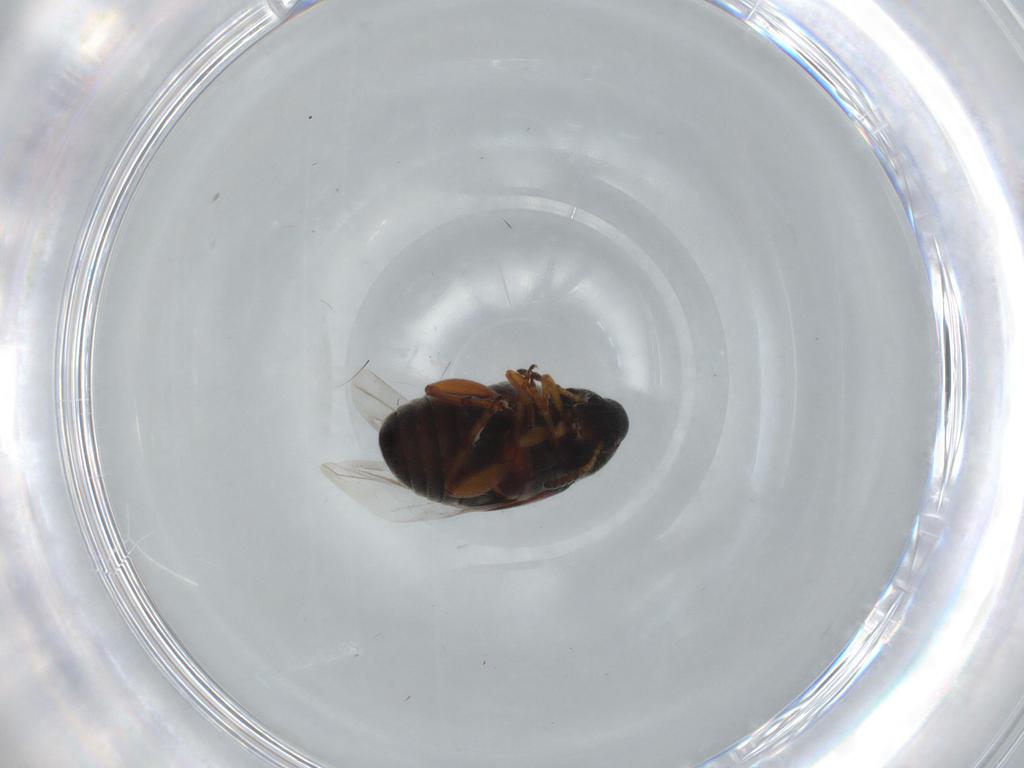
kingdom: Animalia
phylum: Arthropoda
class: Insecta
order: Coleoptera
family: Chrysomelidae
